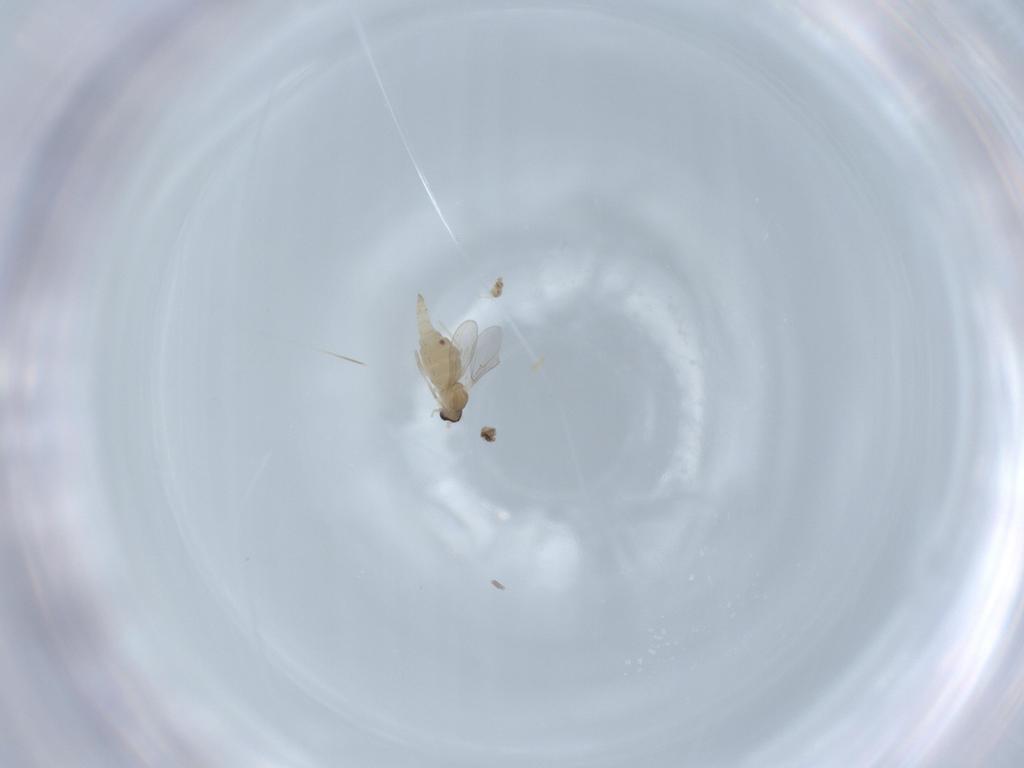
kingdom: Animalia
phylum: Arthropoda
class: Insecta
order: Diptera
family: Cecidomyiidae
